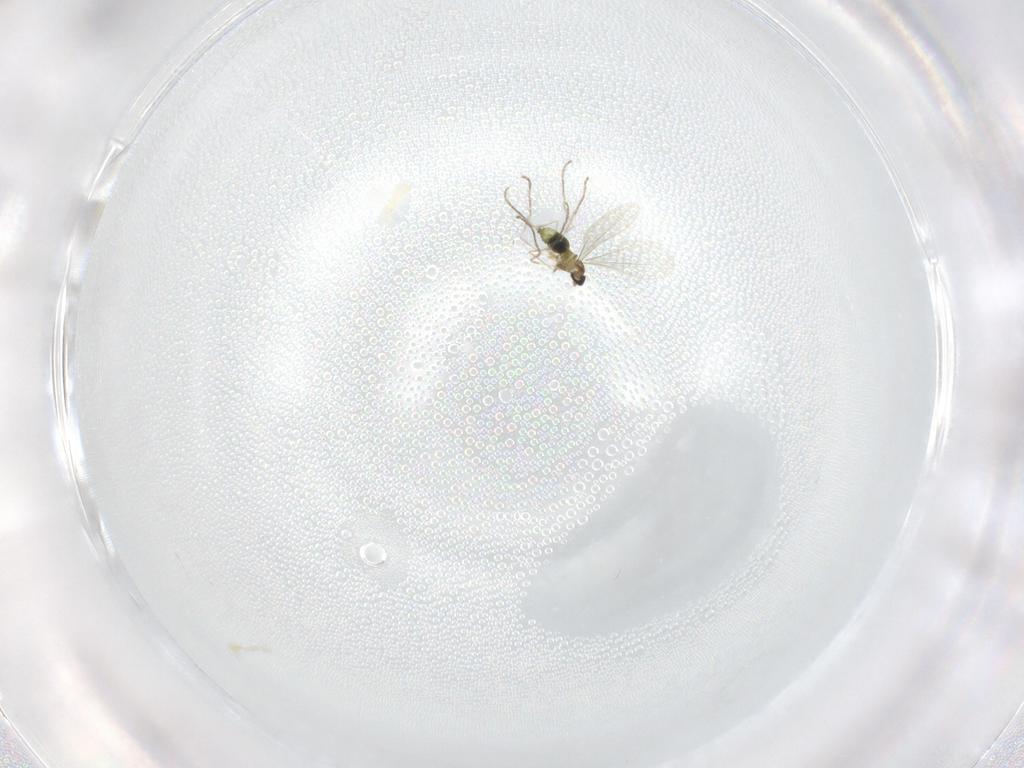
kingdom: Animalia
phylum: Arthropoda
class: Insecta
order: Diptera
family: Cecidomyiidae
